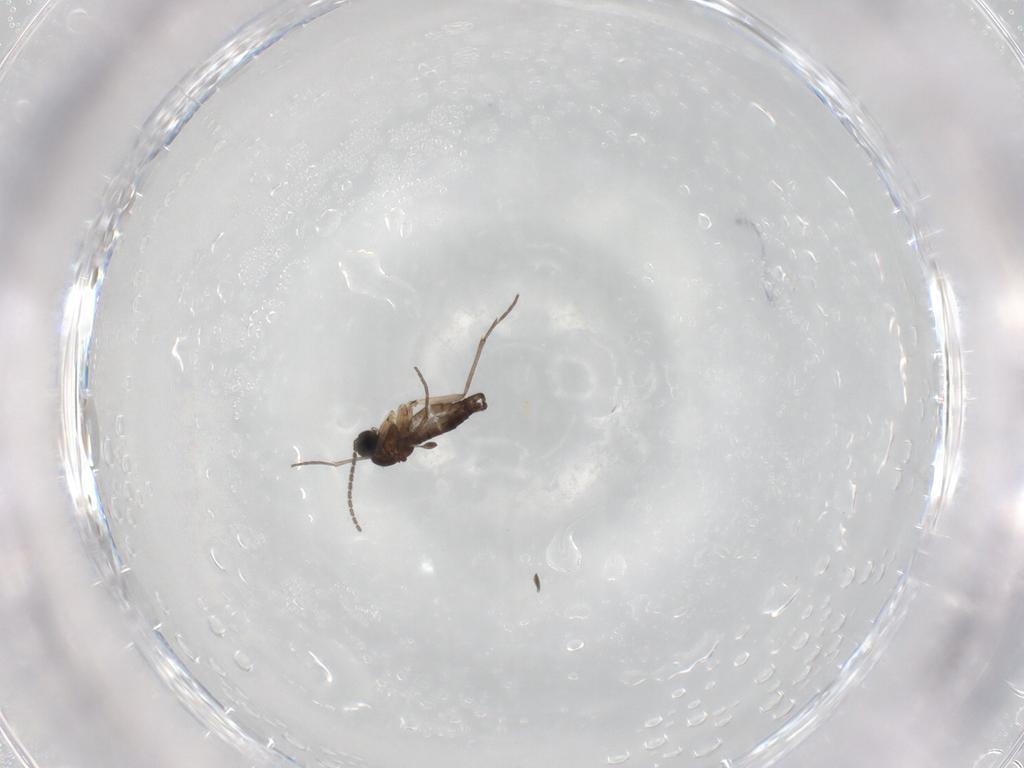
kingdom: Animalia
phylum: Arthropoda
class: Insecta
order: Diptera
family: Sciaridae
